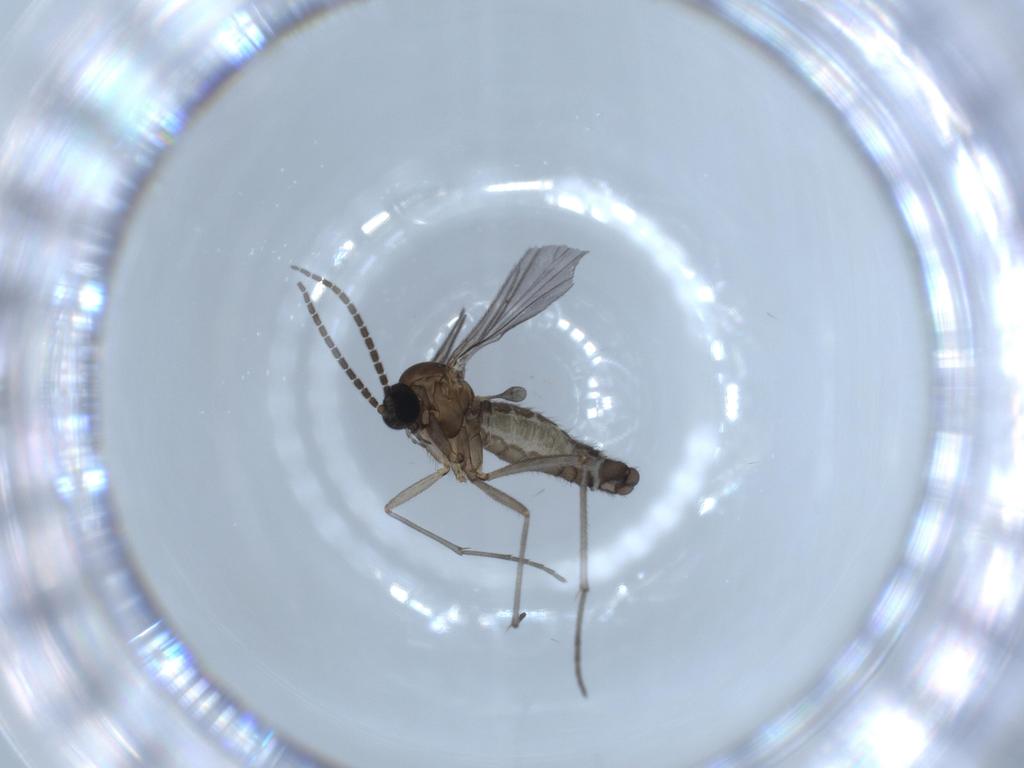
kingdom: Animalia
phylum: Arthropoda
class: Insecta
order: Diptera
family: Sciaridae
